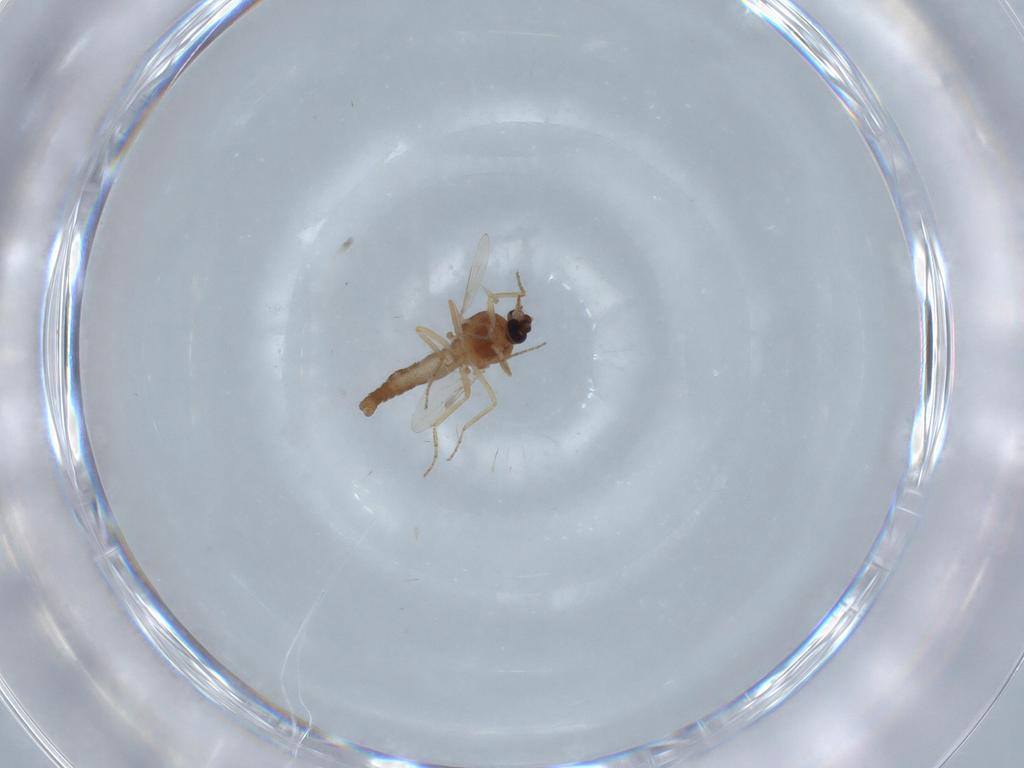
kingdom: Animalia
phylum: Arthropoda
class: Insecta
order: Diptera
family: Ceratopogonidae
